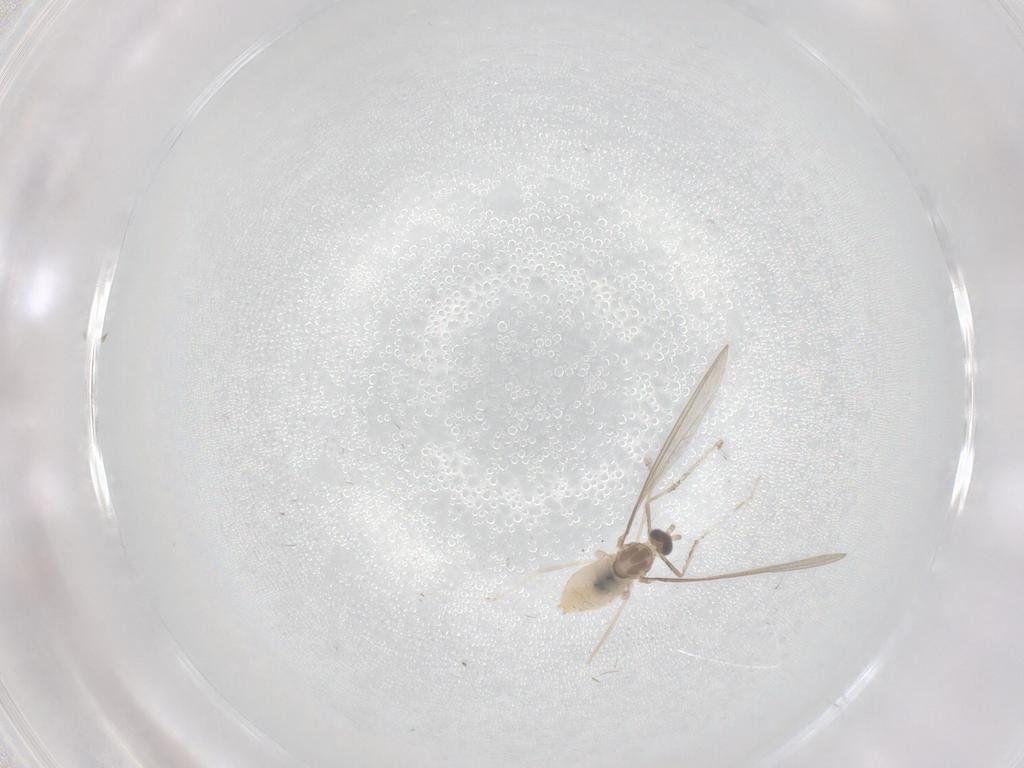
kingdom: Animalia
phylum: Arthropoda
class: Insecta
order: Diptera
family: Cecidomyiidae
